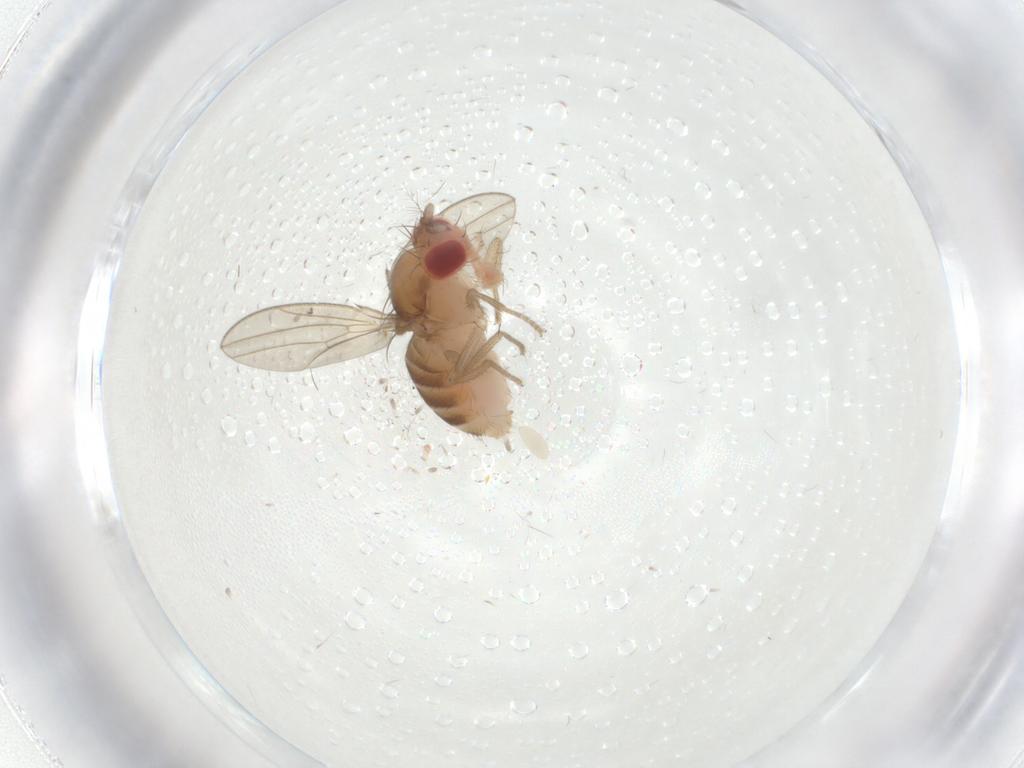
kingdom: Animalia
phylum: Arthropoda
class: Insecta
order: Diptera
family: Drosophilidae
